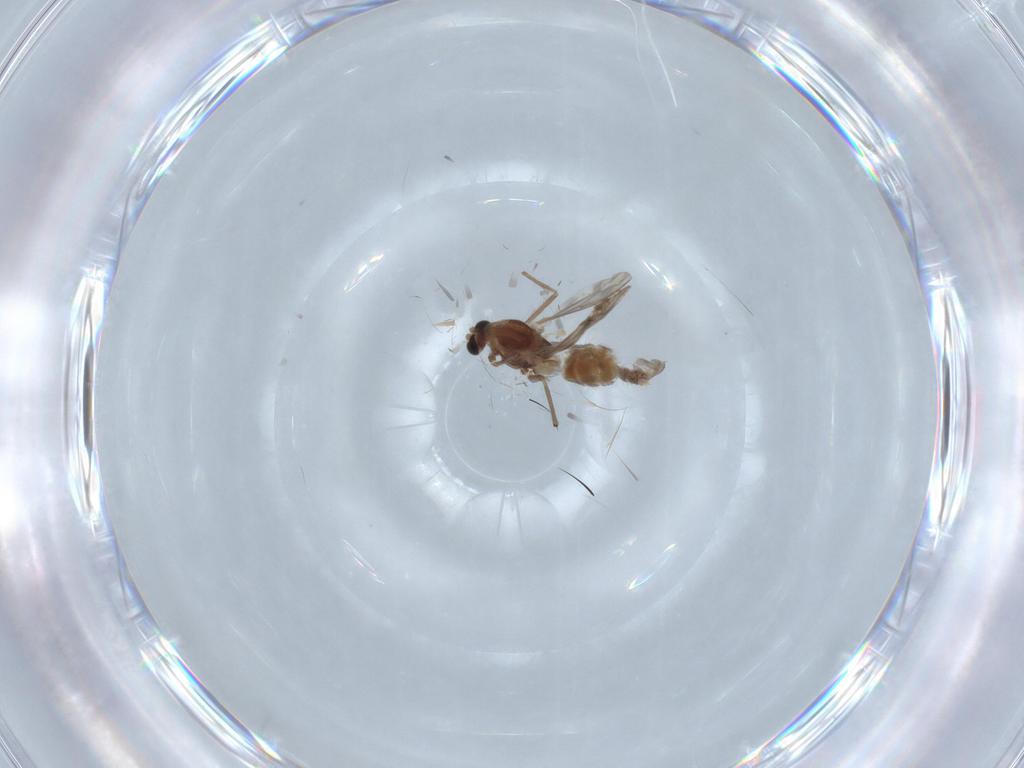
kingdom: Animalia
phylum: Arthropoda
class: Insecta
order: Diptera
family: Chironomidae
